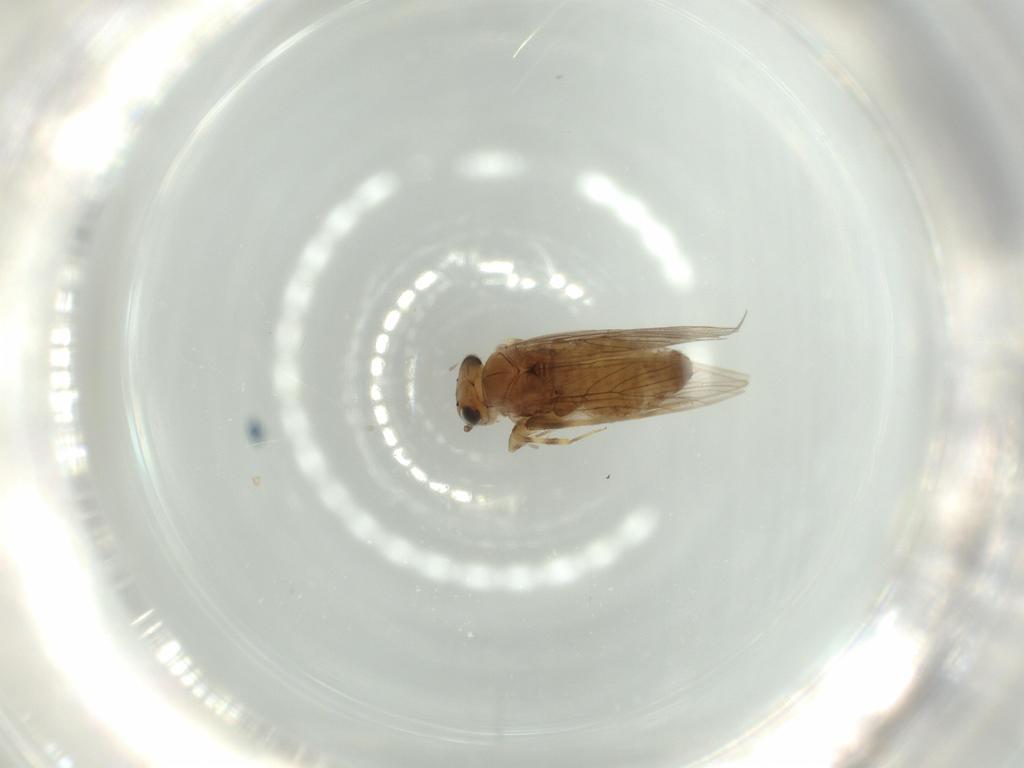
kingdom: Animalia
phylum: Arthropoda
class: Insecta
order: Psocodea
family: Lepidopsocidae
